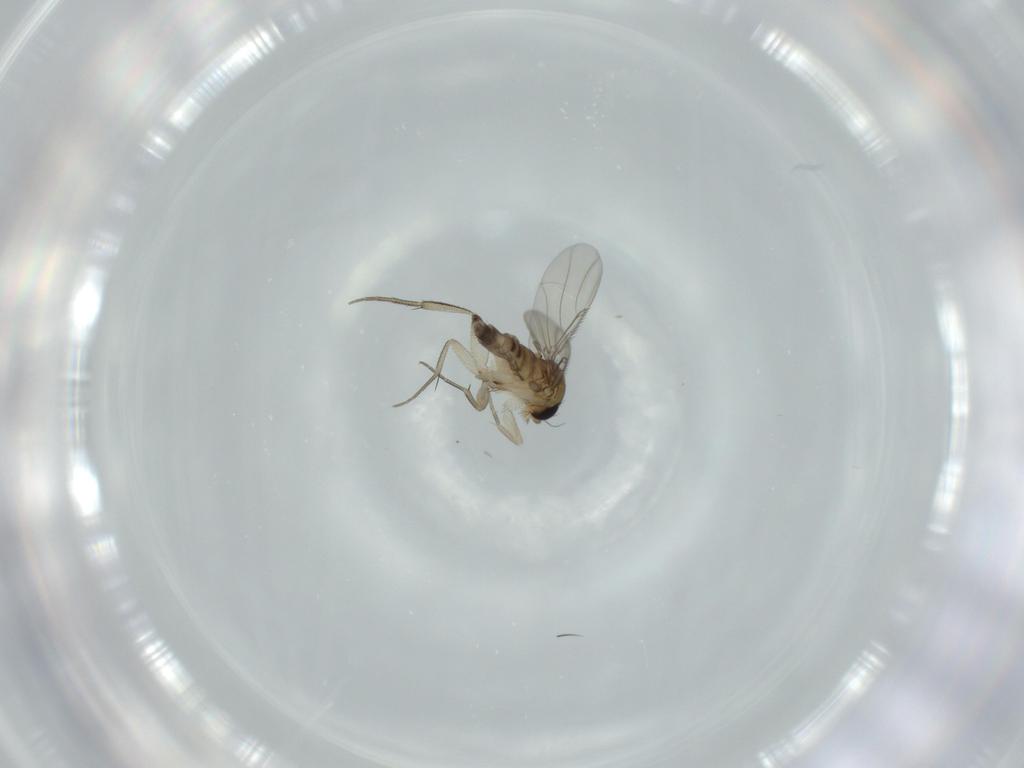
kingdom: Animalia
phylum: Arthropoda
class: Insecta
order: Diptera
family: Phoridae
